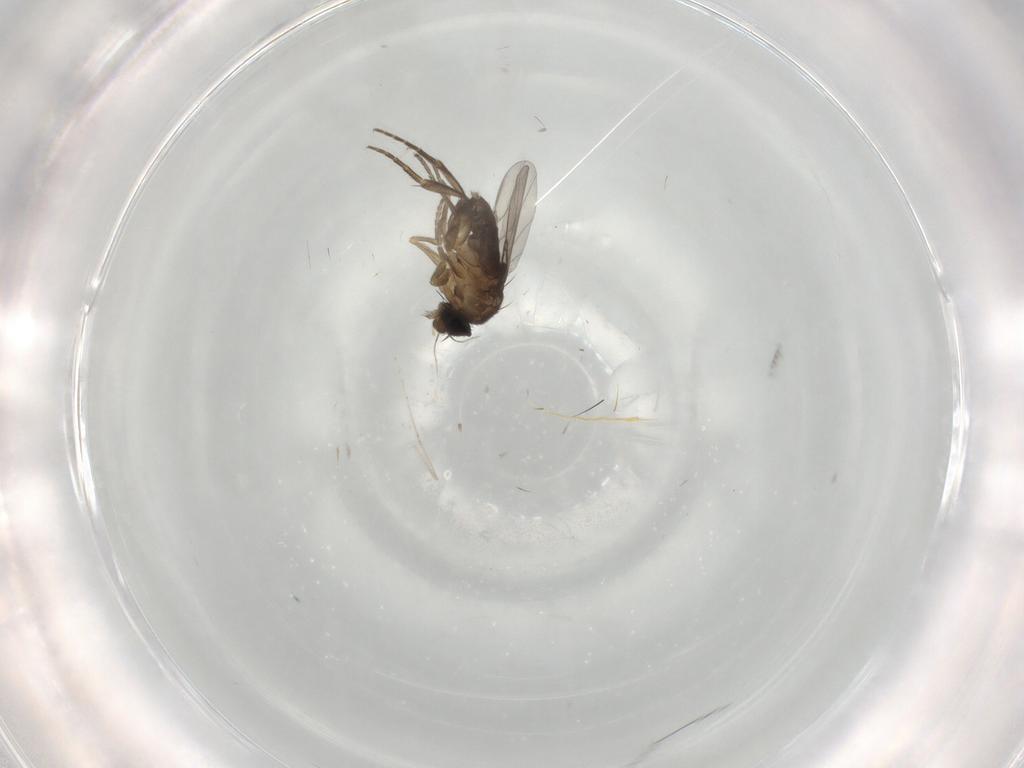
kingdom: Animalia
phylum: Arthropoda
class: Insecta
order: Diptera
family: Phoridae
